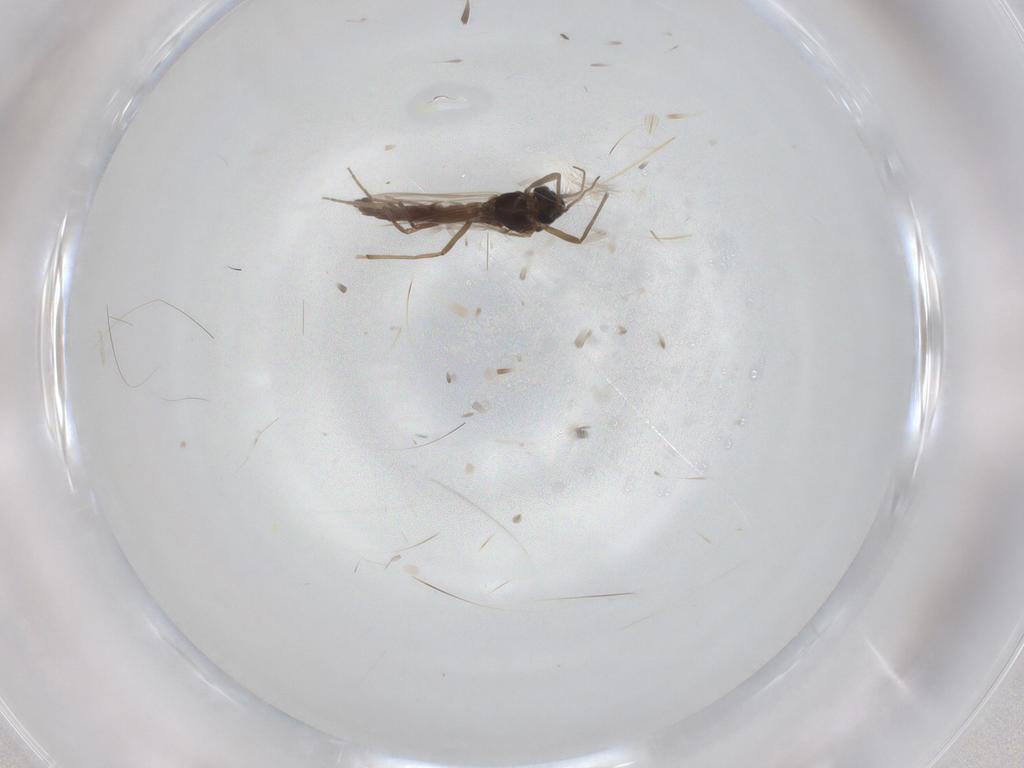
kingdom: Animalia
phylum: Arthropoda
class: Insecta
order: Diptera
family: Chironomidae
